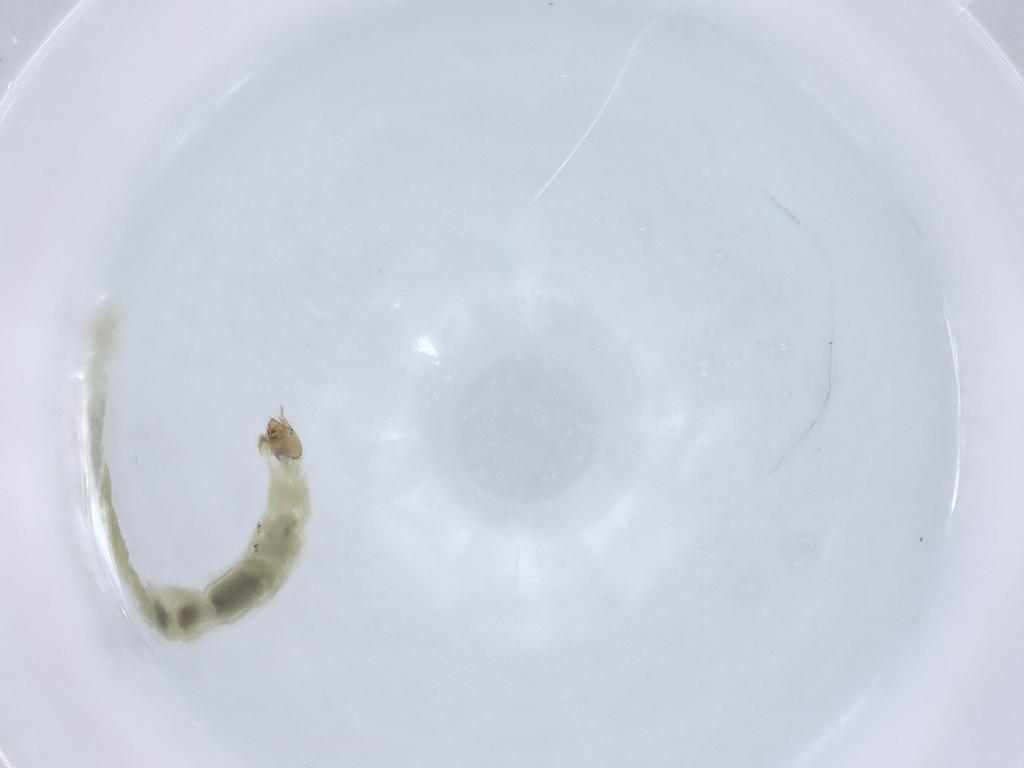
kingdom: Animalia
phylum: Arthropoda
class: Insecta
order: Diptera
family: Chironomidae
